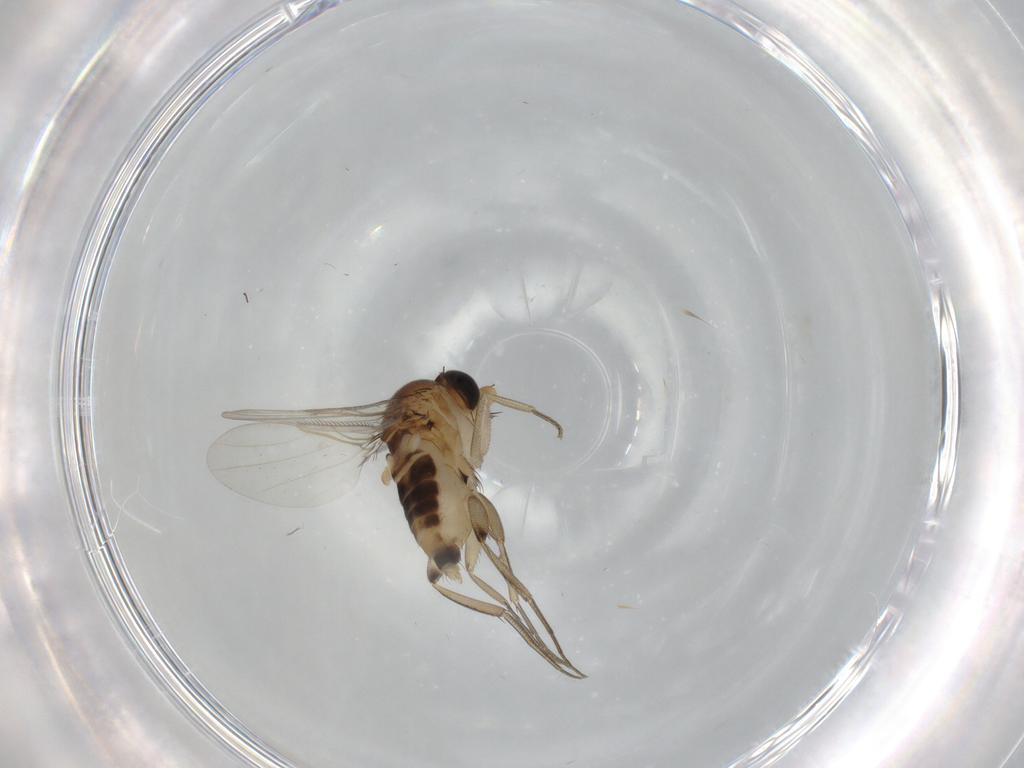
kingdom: Animalia
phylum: Arthropoda
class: Insecta
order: Diptera
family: Phoridae
